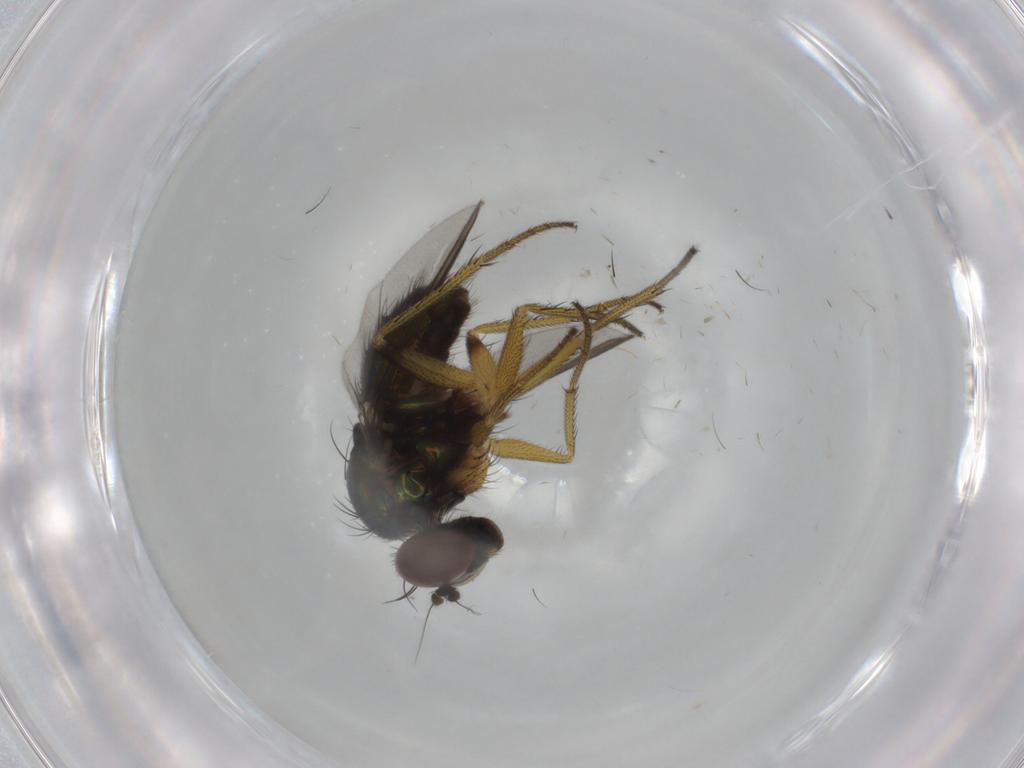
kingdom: Animalia
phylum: Arthropoda
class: Insecta
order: Diptera
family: Dolichopodidae
